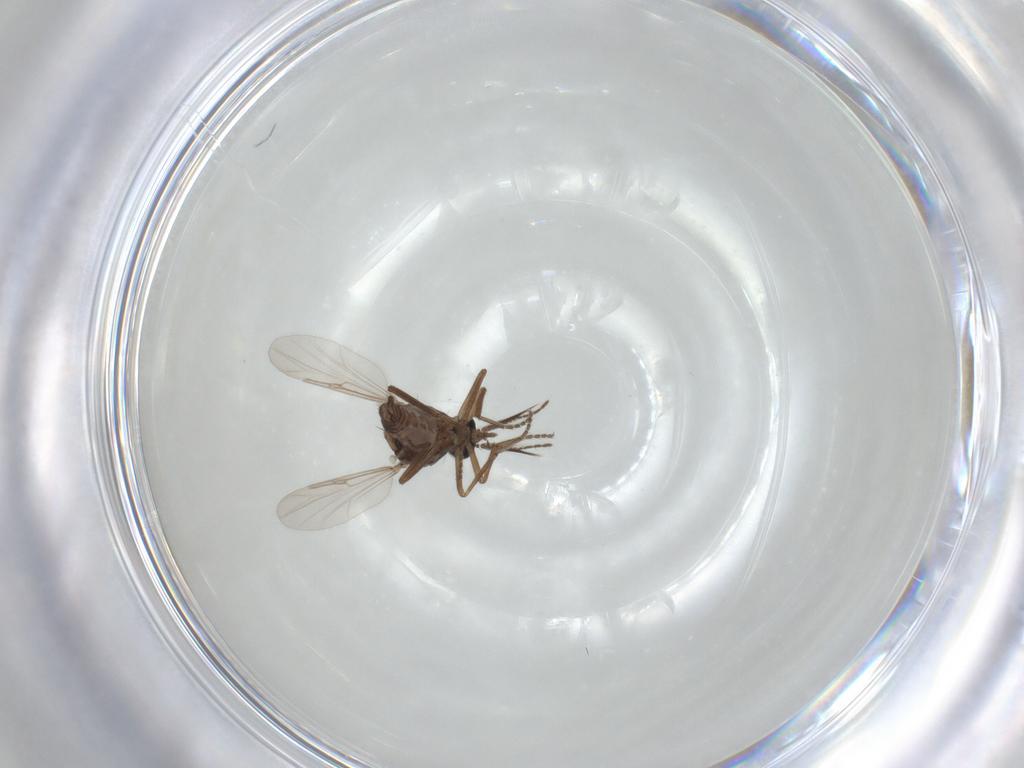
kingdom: Animalia
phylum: Arthropoda
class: Insecta
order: Diptera
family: Ceratopogonidae
